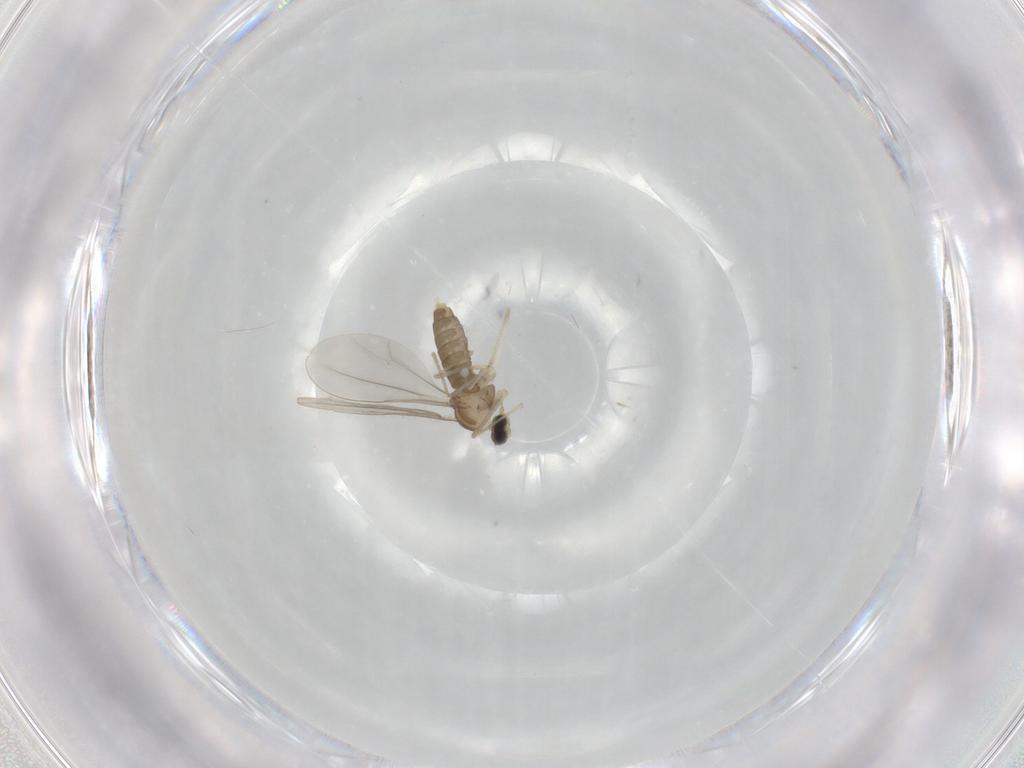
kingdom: Animalia
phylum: Arthropoda
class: Insecta
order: Diptera
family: Cecidomyiidae
